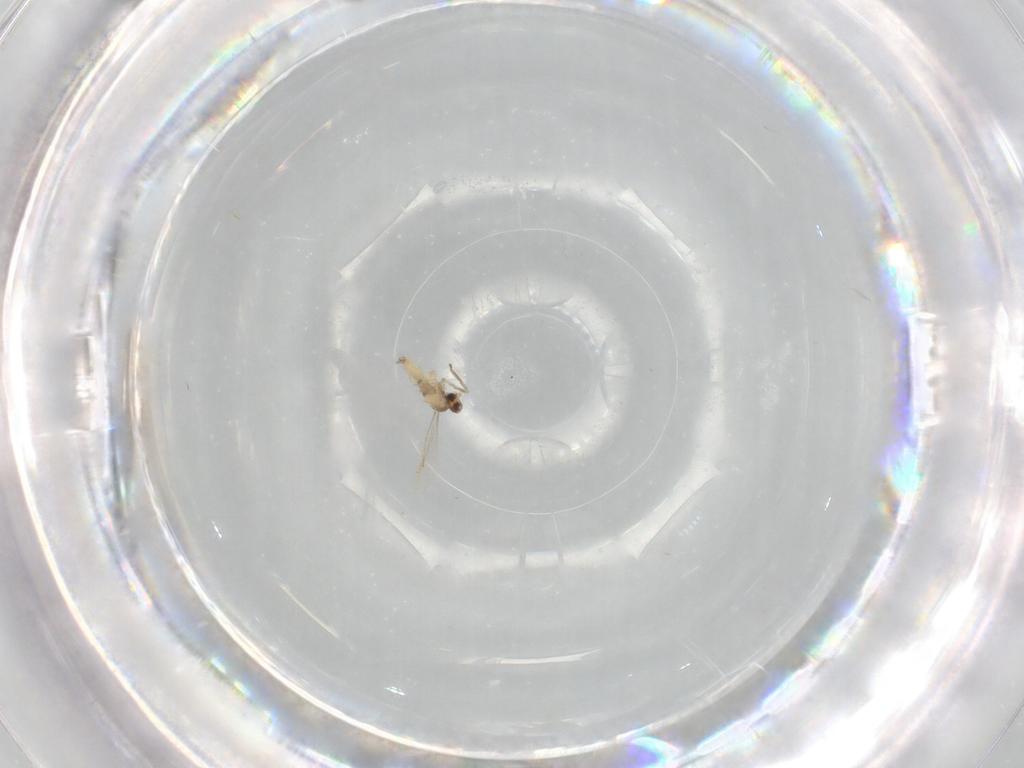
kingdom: Animalia
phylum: Arthropoda
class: Insecta
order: Diptera
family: Cecidomyiidae
